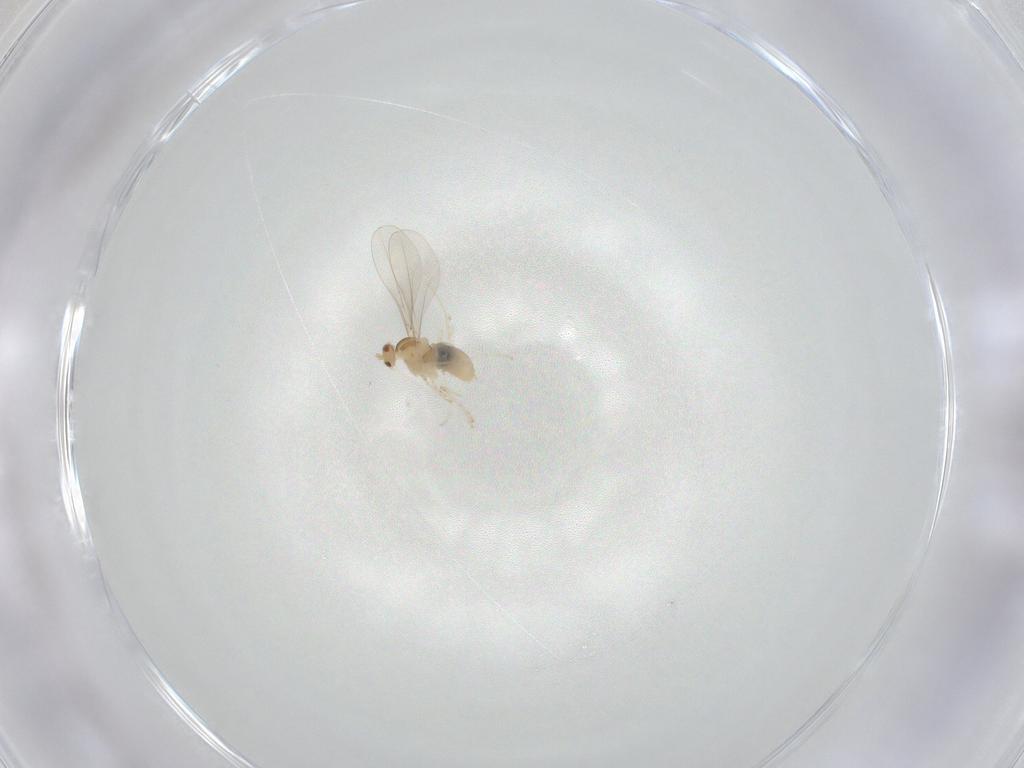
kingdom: Animalia
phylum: Arthropoda
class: Insecta
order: Diptera
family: Cecidomyiidae
